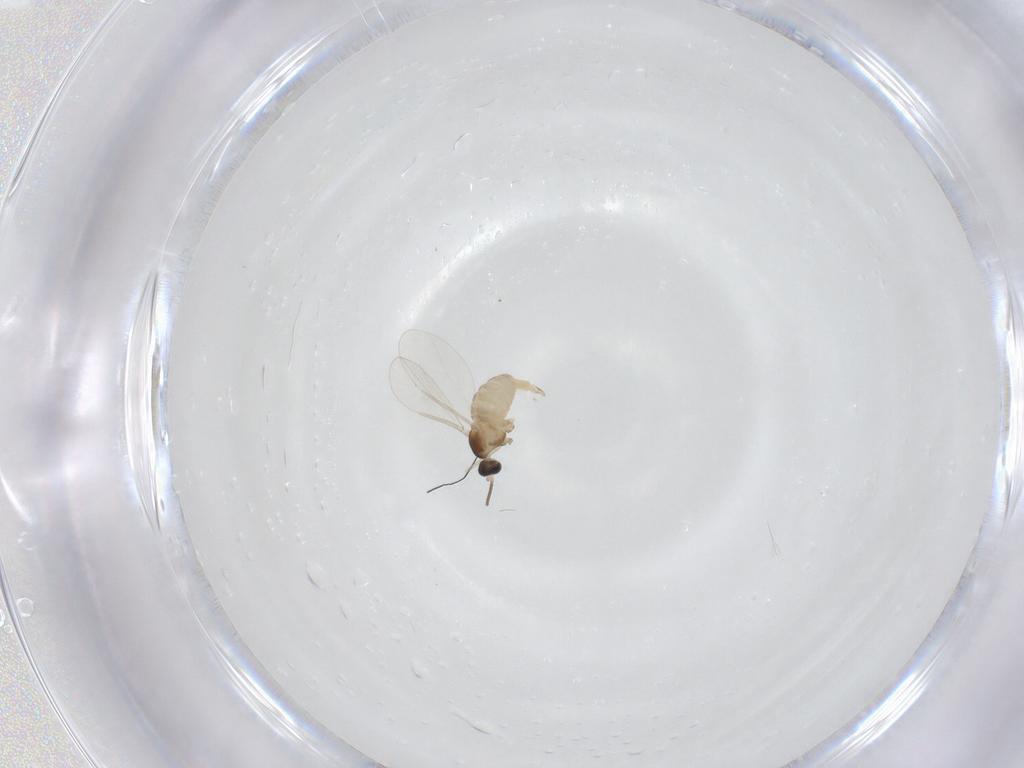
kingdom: Animalia
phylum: Arthropoda
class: Insecta
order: Diptera
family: Cecidomyiidae
